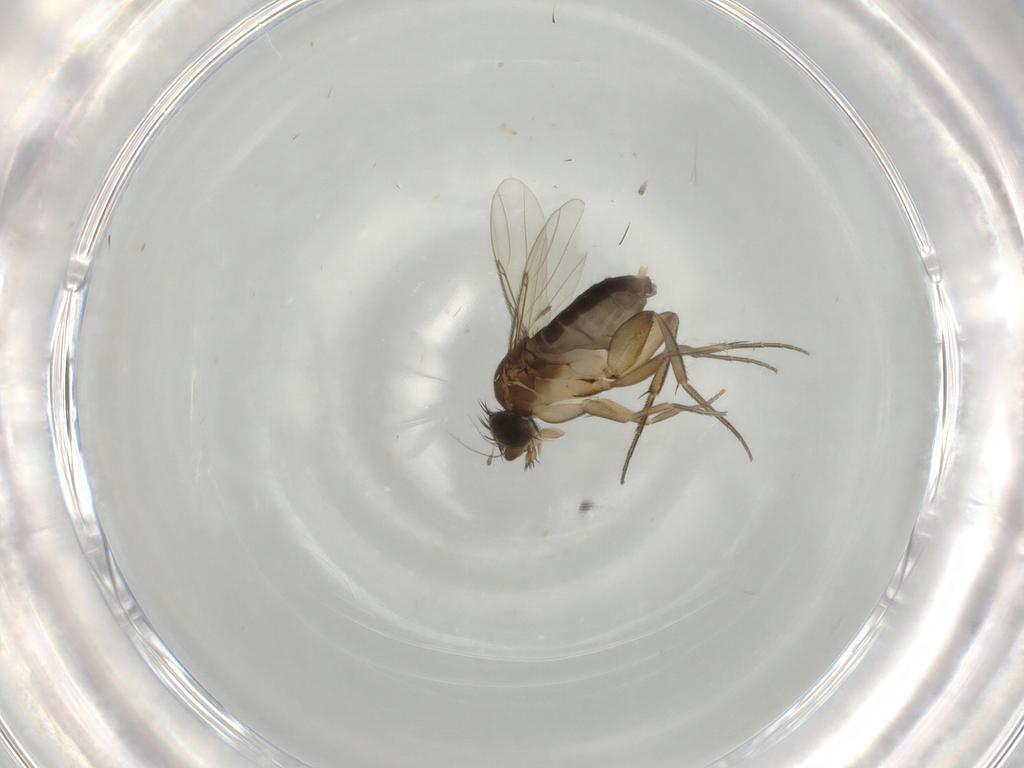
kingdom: Animalia
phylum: Arthropoda
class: Insecta
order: Diptera
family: Phoridae
